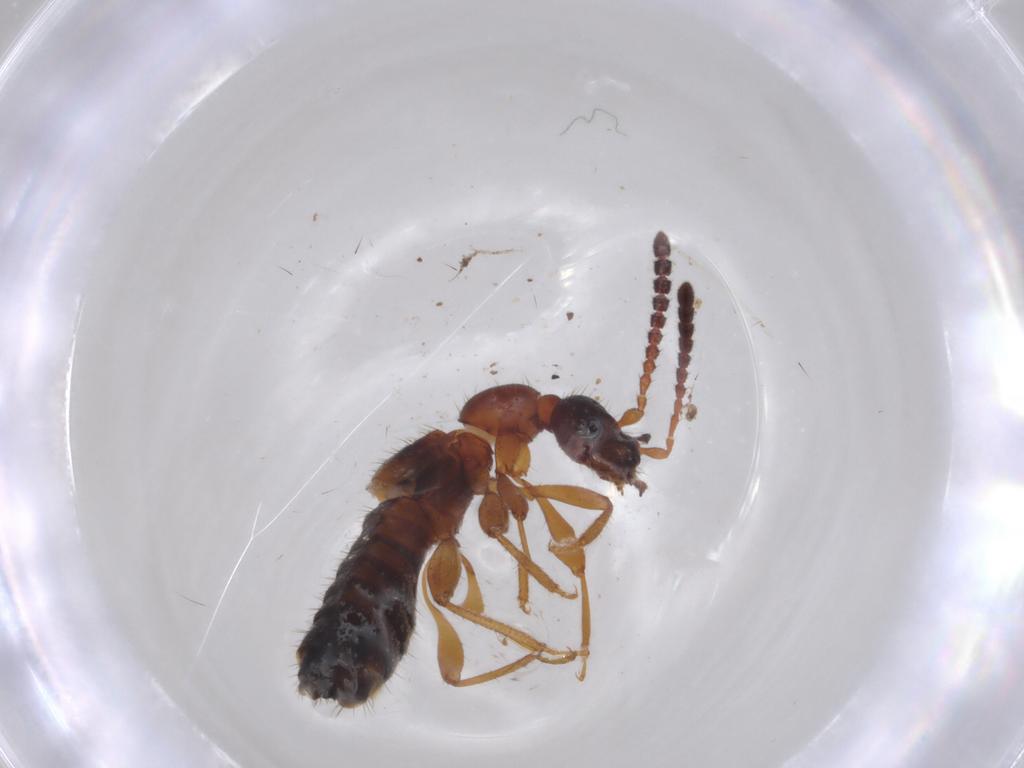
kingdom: Animalia
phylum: Arthropoda
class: Insecta
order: Coleoptera
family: Staphylinidae
